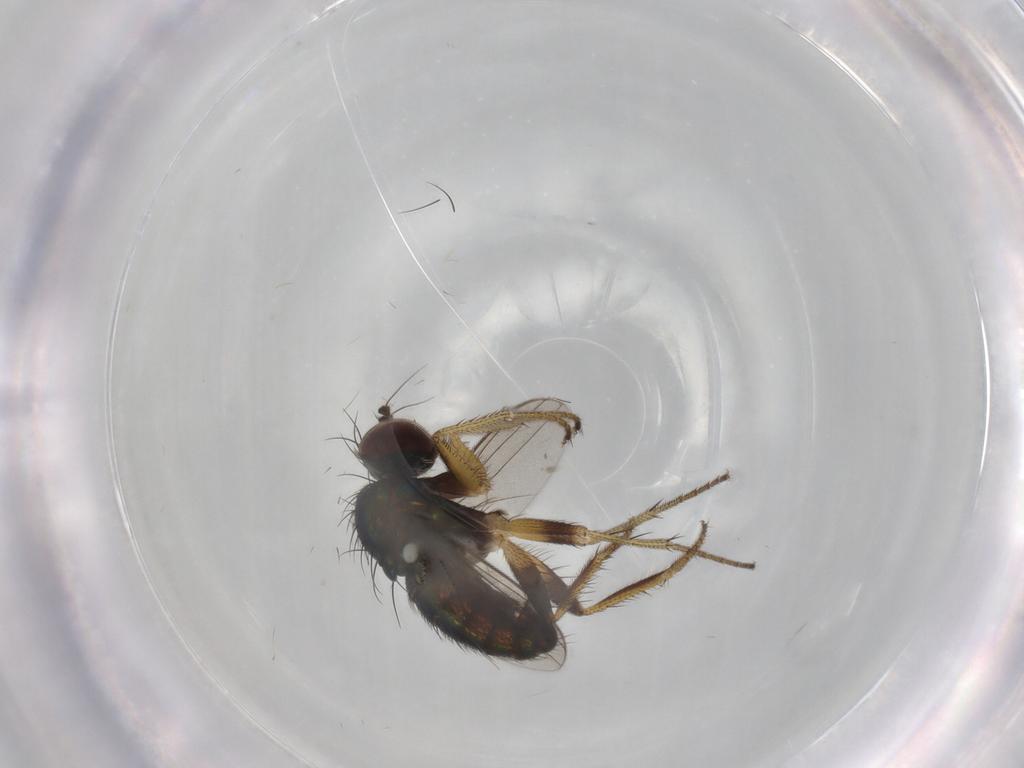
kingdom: Animalia
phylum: Arthropoda
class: Insecta
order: Diptera
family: Dolichopodidae
